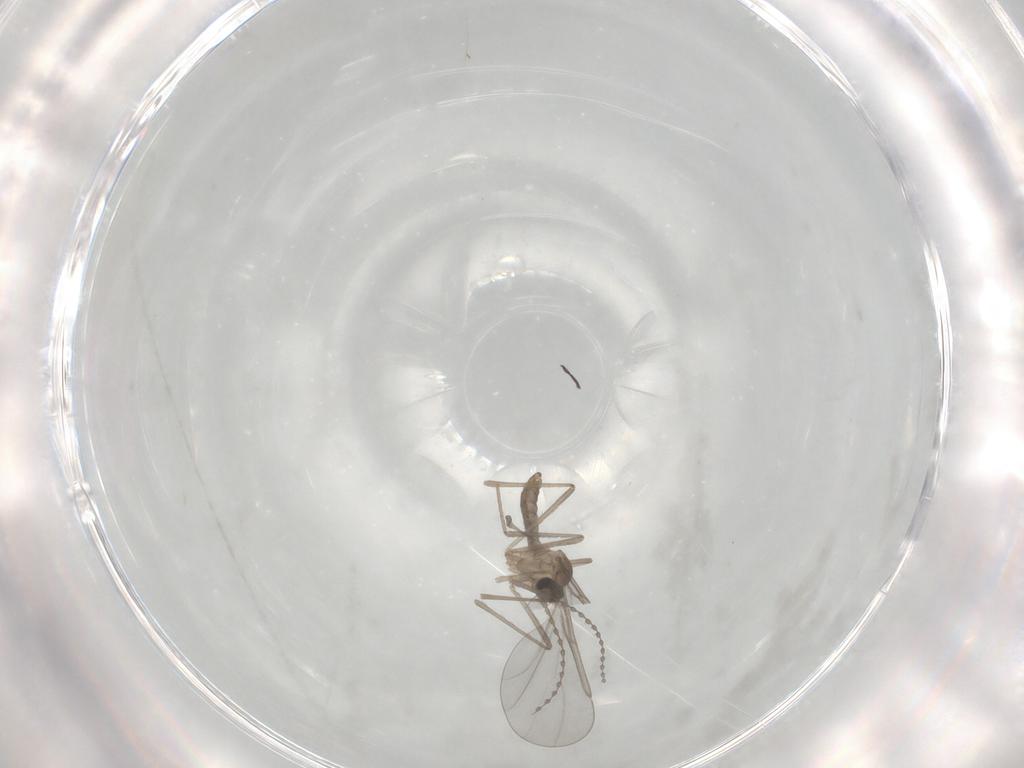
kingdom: Animalia
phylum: Arthropoda
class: Insecta
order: Diptera
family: Cecidomyiidae
